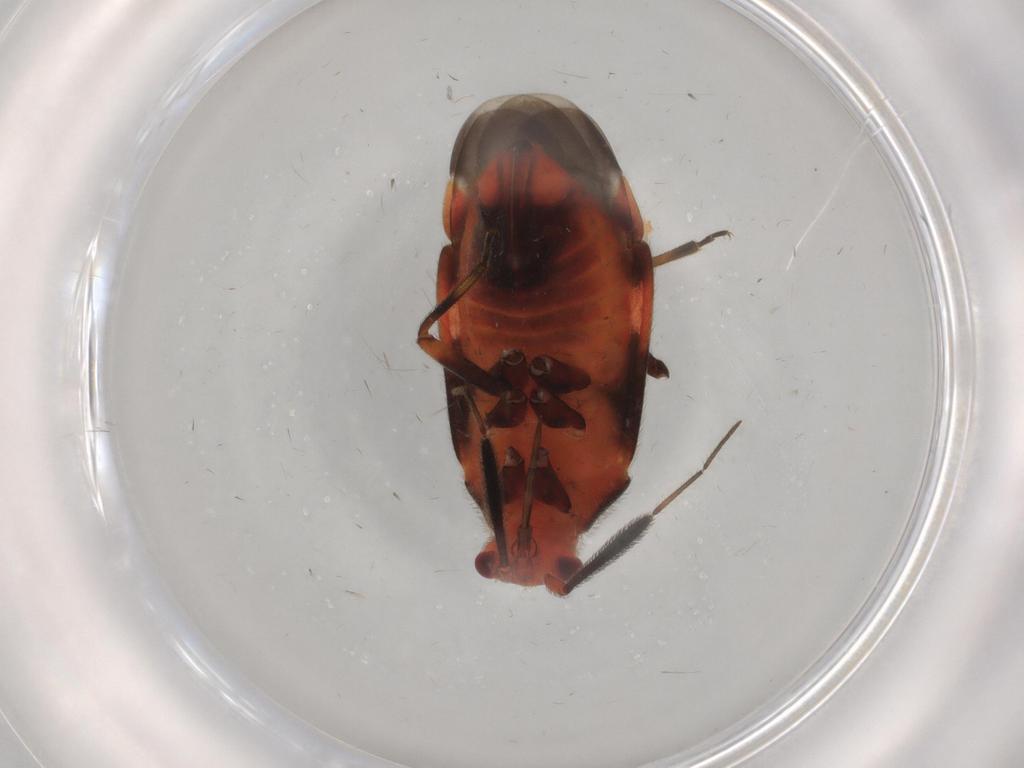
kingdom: Animalia
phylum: Arthropoda
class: Insecta
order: Hemiptera
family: Miridae
